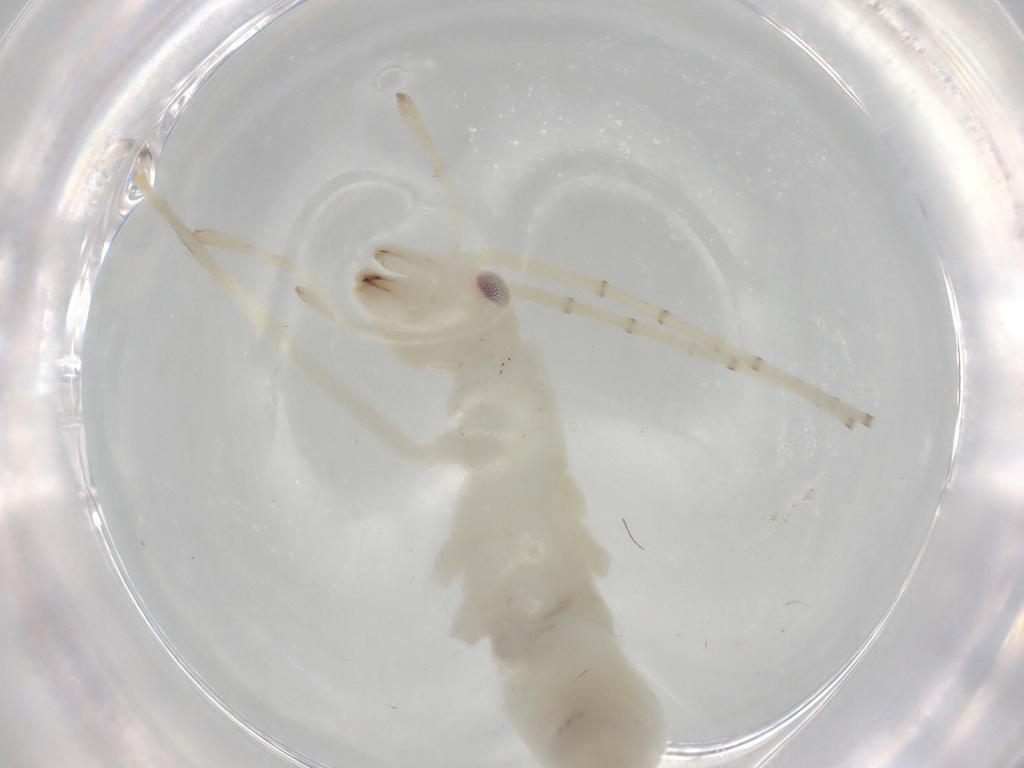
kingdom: Animalia
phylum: Arthropoda
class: Insecta
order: Orthoptera
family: Oecanthidae
